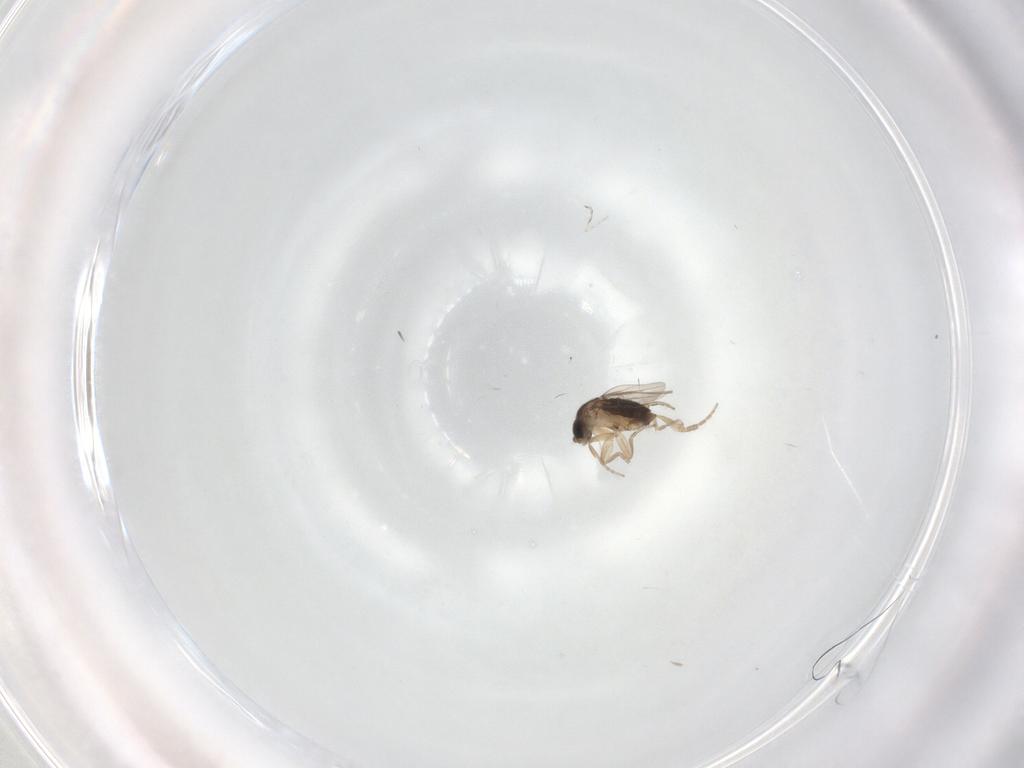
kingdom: Animalia
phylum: Arthropoda
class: Insecta
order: Diptera
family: Cecidomyiidae
